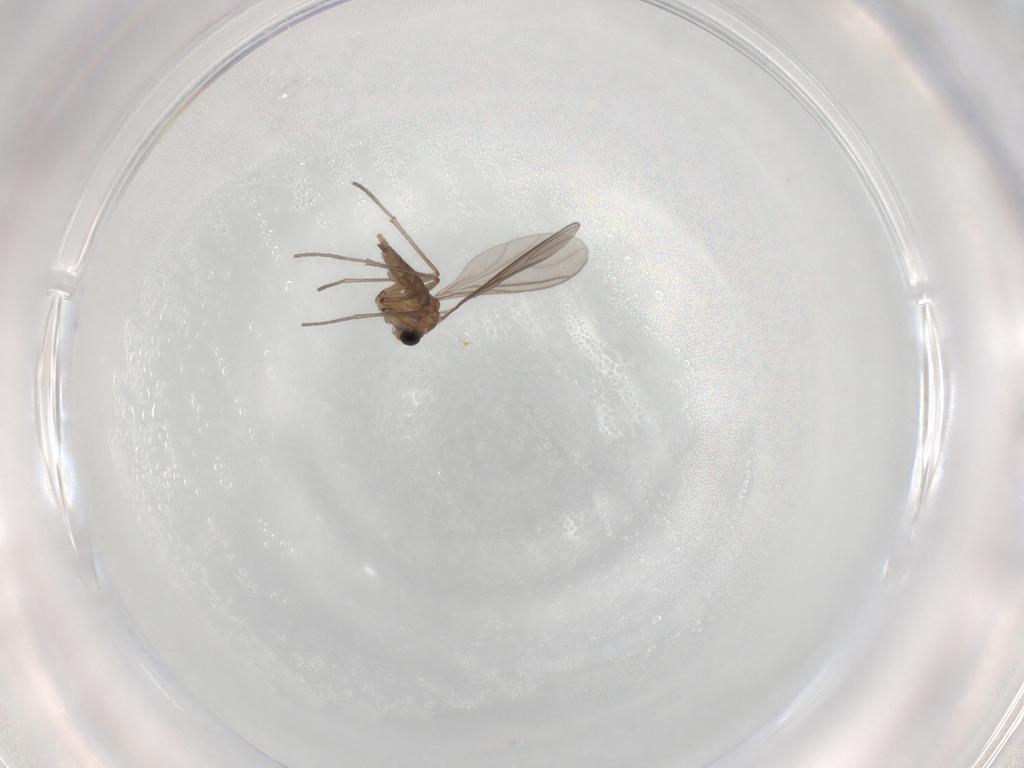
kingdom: Animalia
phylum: Arthropoda
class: Insecta
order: Diptera
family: Sciaridae
